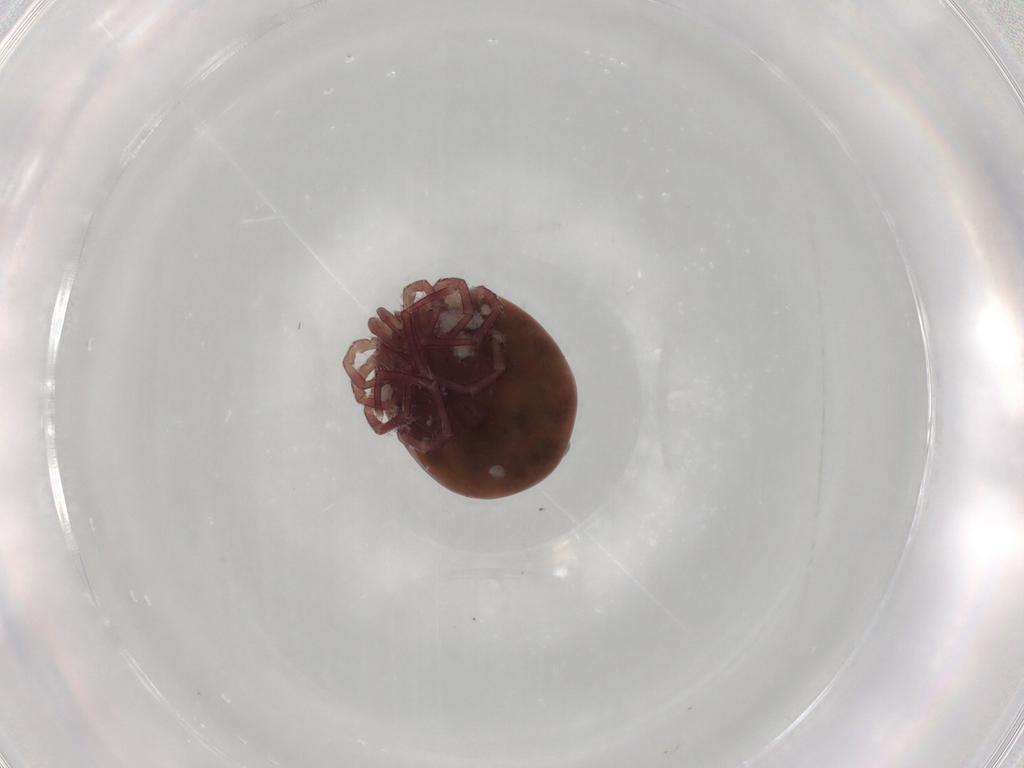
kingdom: Animalia
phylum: Arthropoda
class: Arachnida
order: Trombidiformes
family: Lebertiidae
